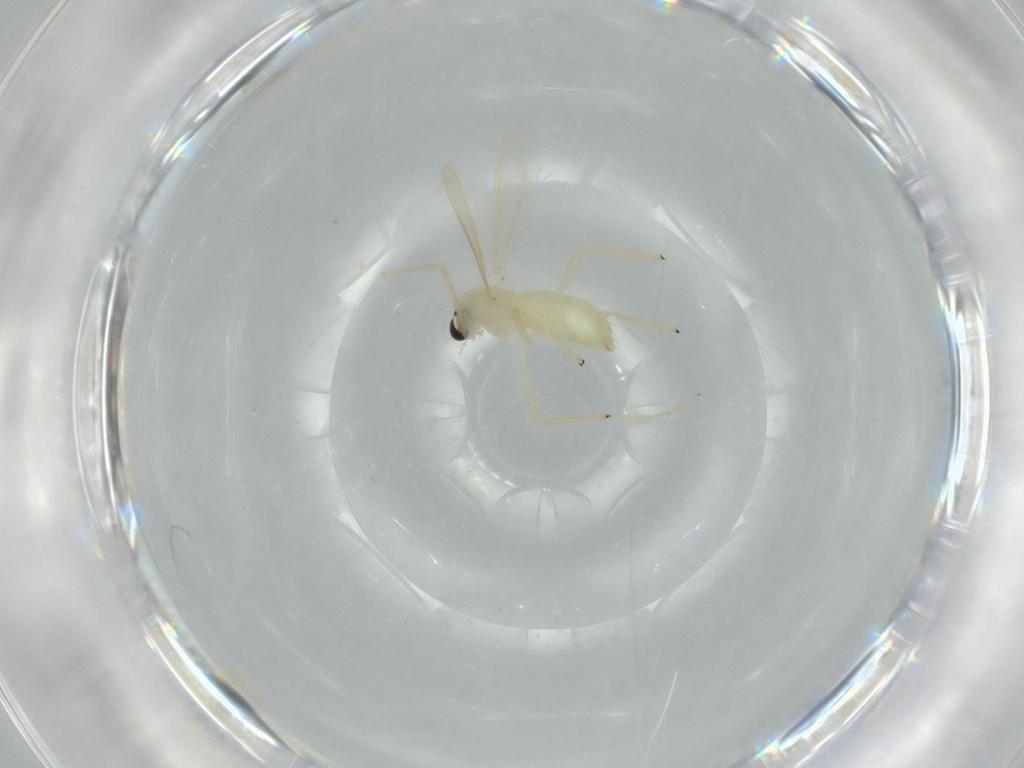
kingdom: Animalia
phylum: Arthropoda
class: Insecta
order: Diptera
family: Chironomidae
